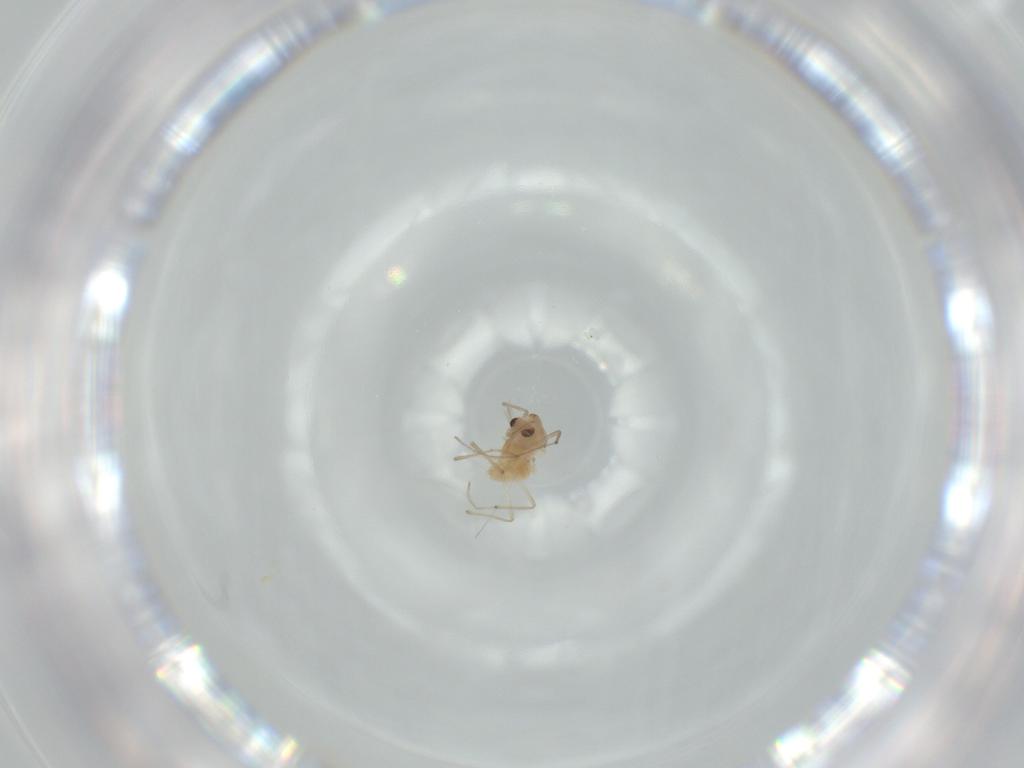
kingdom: Animalia
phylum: Arthropoda
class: Insecta
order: Diptera
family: Chironomidae
